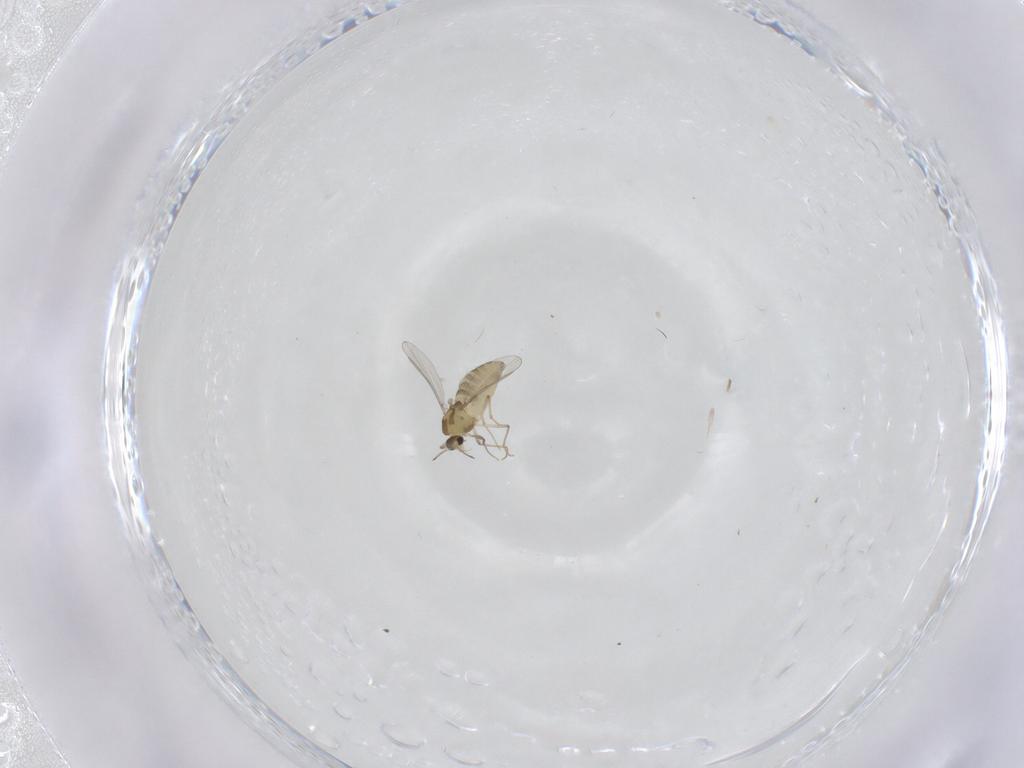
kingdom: Animalia
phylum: Arthropoda
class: Insecta
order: Diptera
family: Chironomidae
